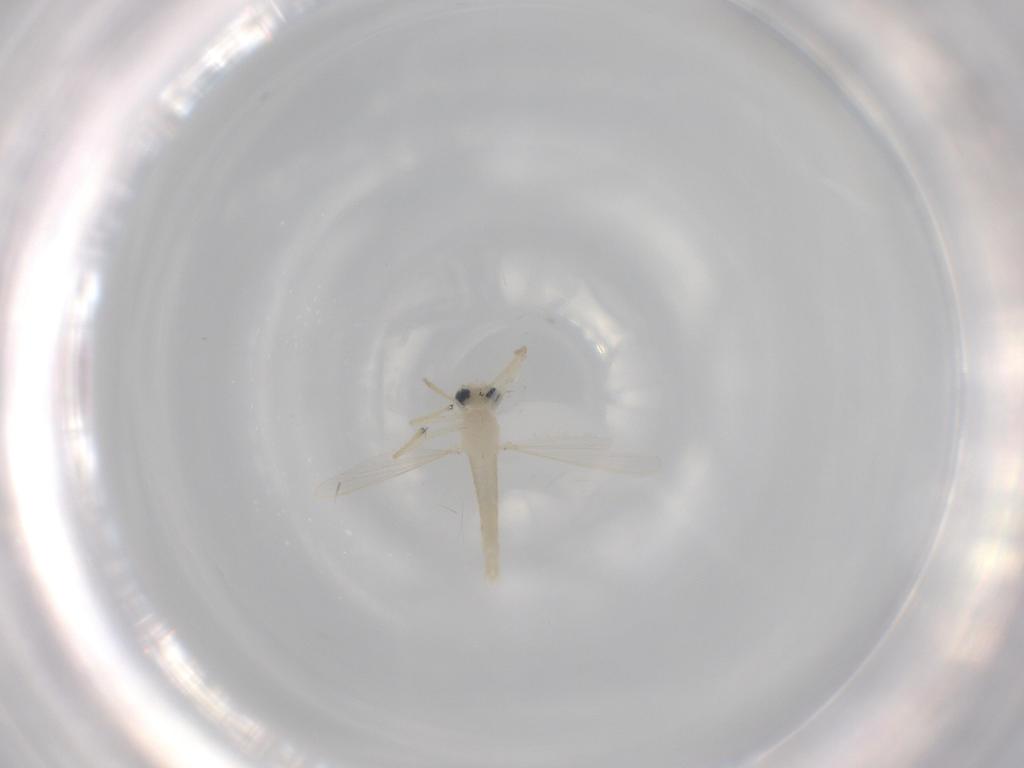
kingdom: Animalia
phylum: Arthropoda
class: Insecta
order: Diptera
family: Chironomidae
